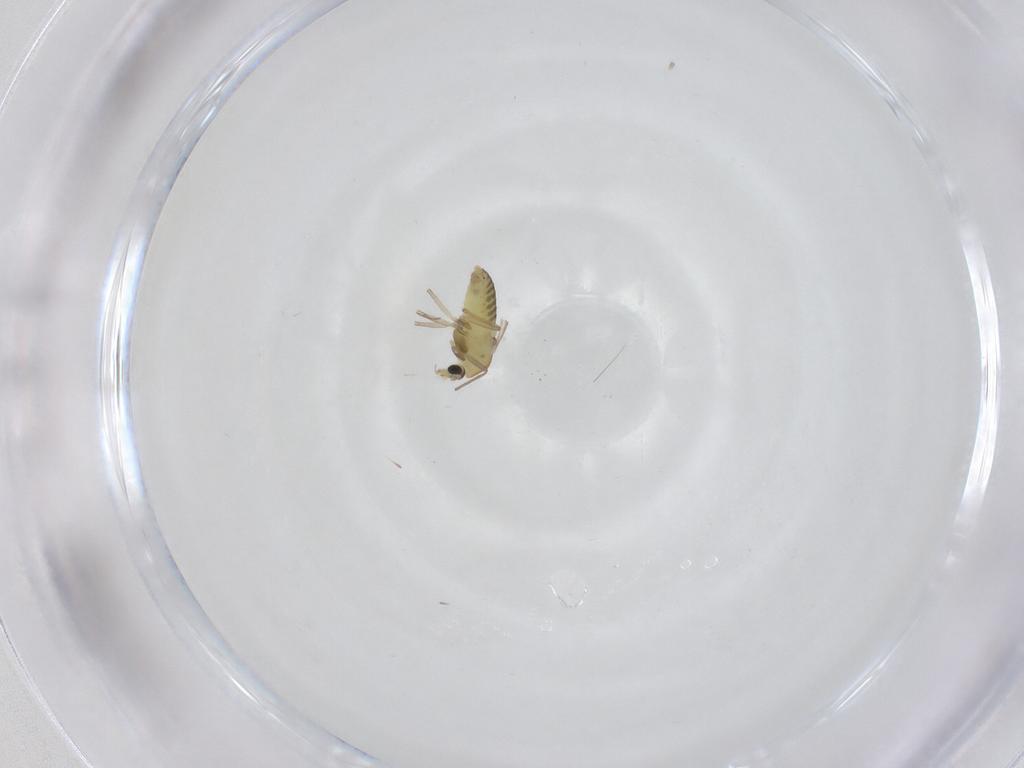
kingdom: Animalia
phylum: Arthropoda
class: Insecta
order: Diptera
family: Chironomidae
